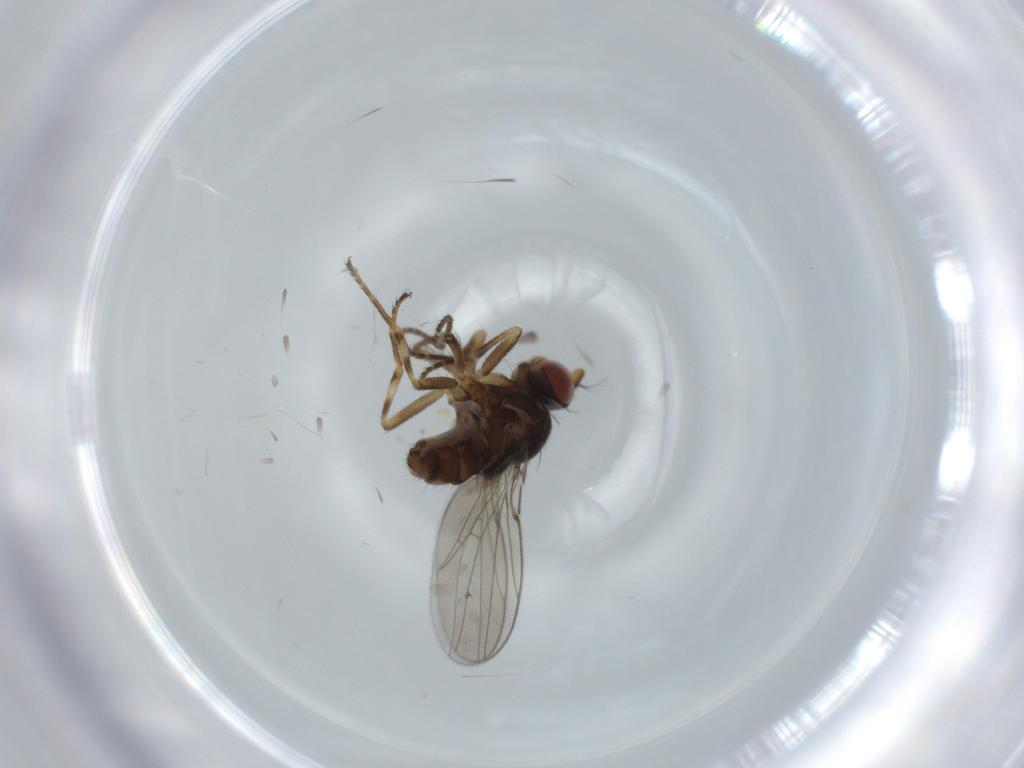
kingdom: Animalia
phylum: Arthropoda
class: Insecta
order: Diptera
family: Ephydridae
